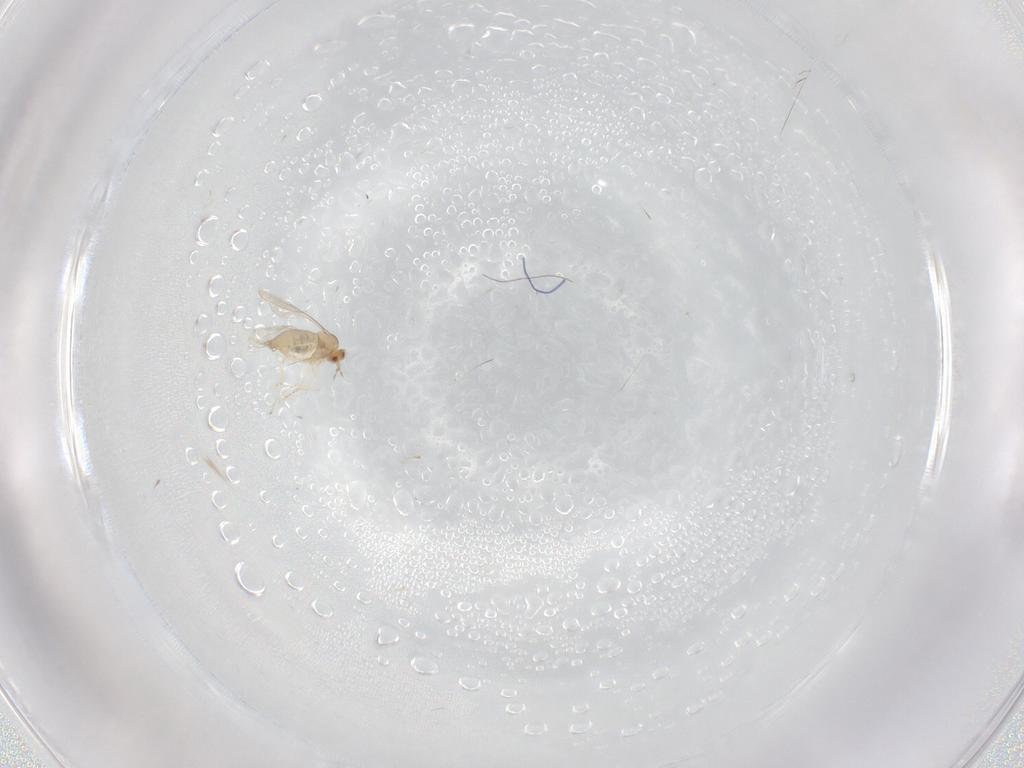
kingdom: Animalia
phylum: Arthropoda
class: Insecta
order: Diptera
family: Cecidomyiidae
